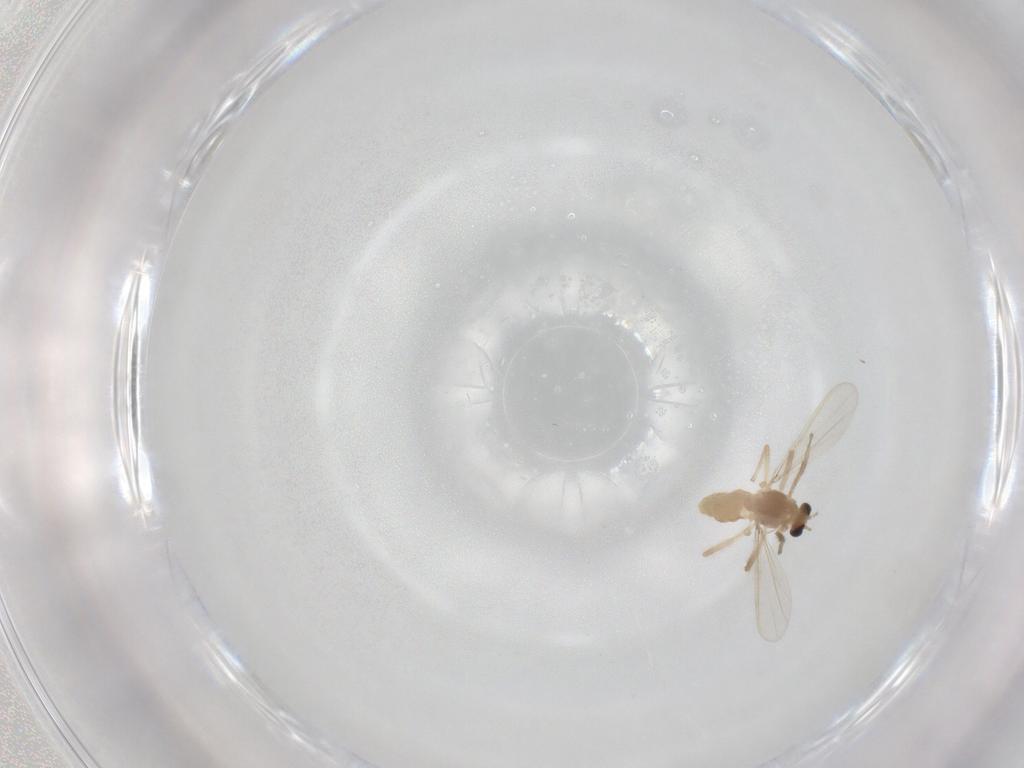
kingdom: Animalia
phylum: Arthropoda
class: Insecta
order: Diptera
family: Chironomidae
